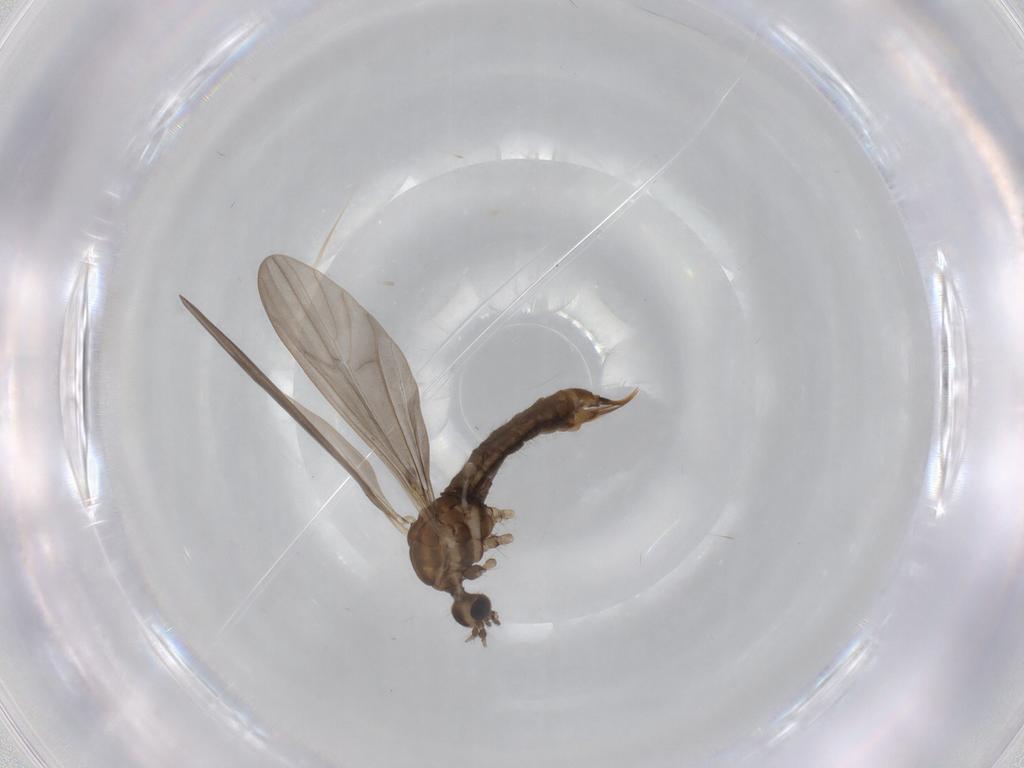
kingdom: Animalia
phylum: Arthropoda
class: Insecta
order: Diptera
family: Limoniidae
